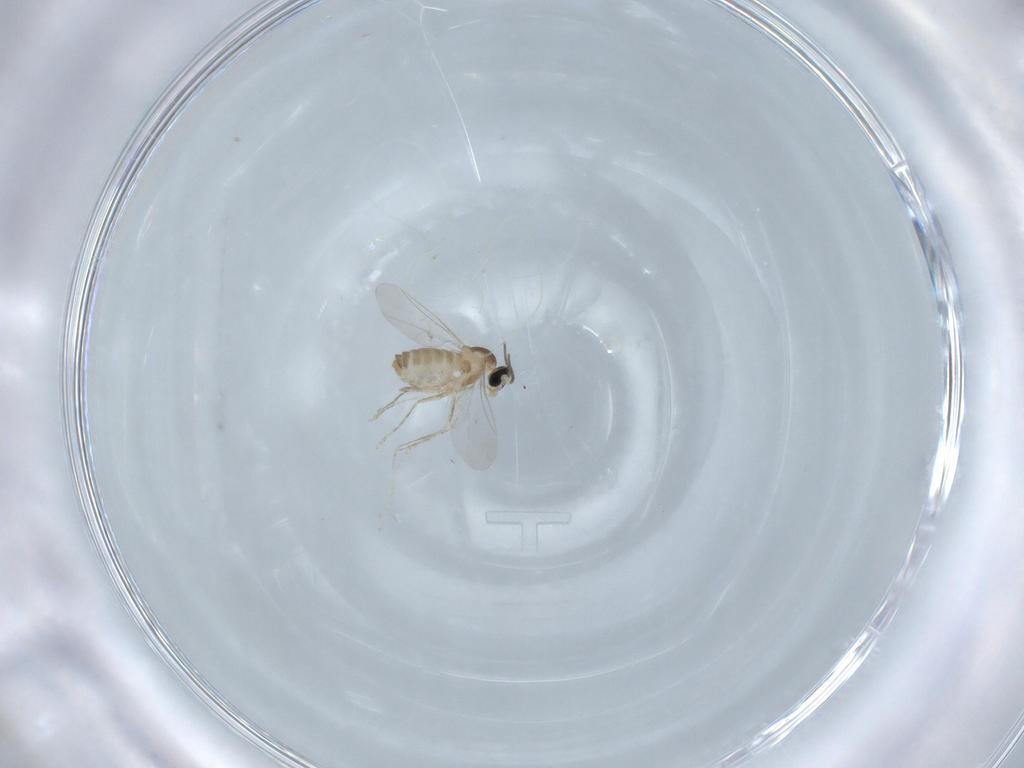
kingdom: Animalia
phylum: Arthropoda
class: Insecta
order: Diptera
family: Cecidomyiidae
